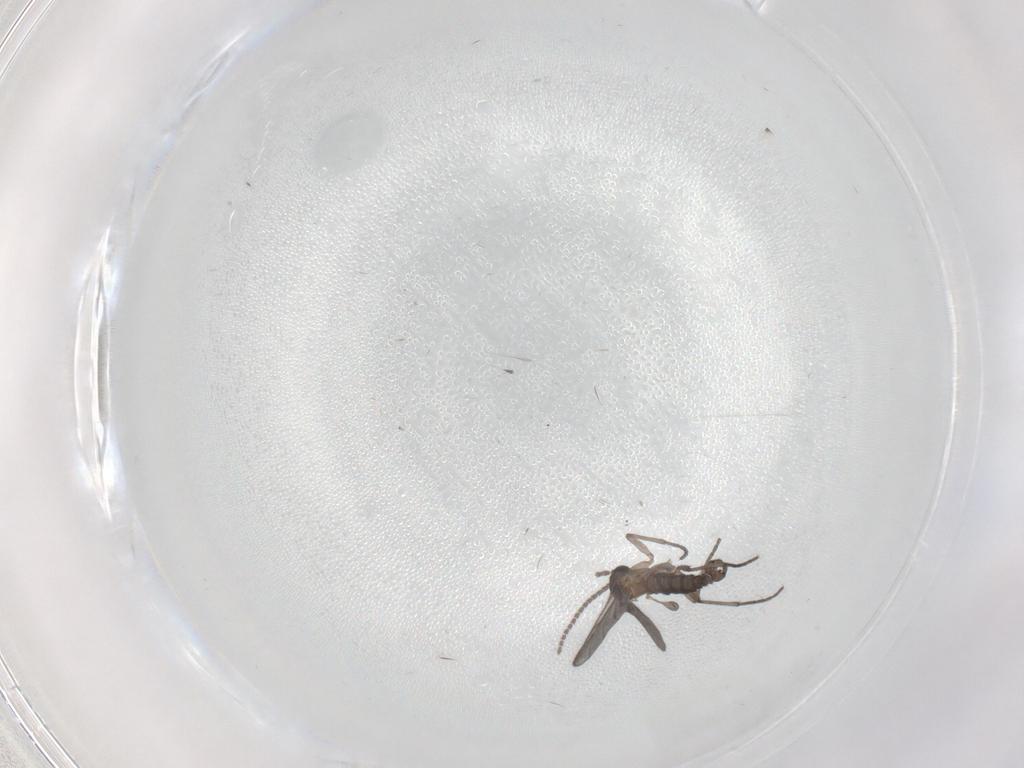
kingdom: Animalia
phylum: Arthropoda
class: Insecta
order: Diptera
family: Sciaridae
